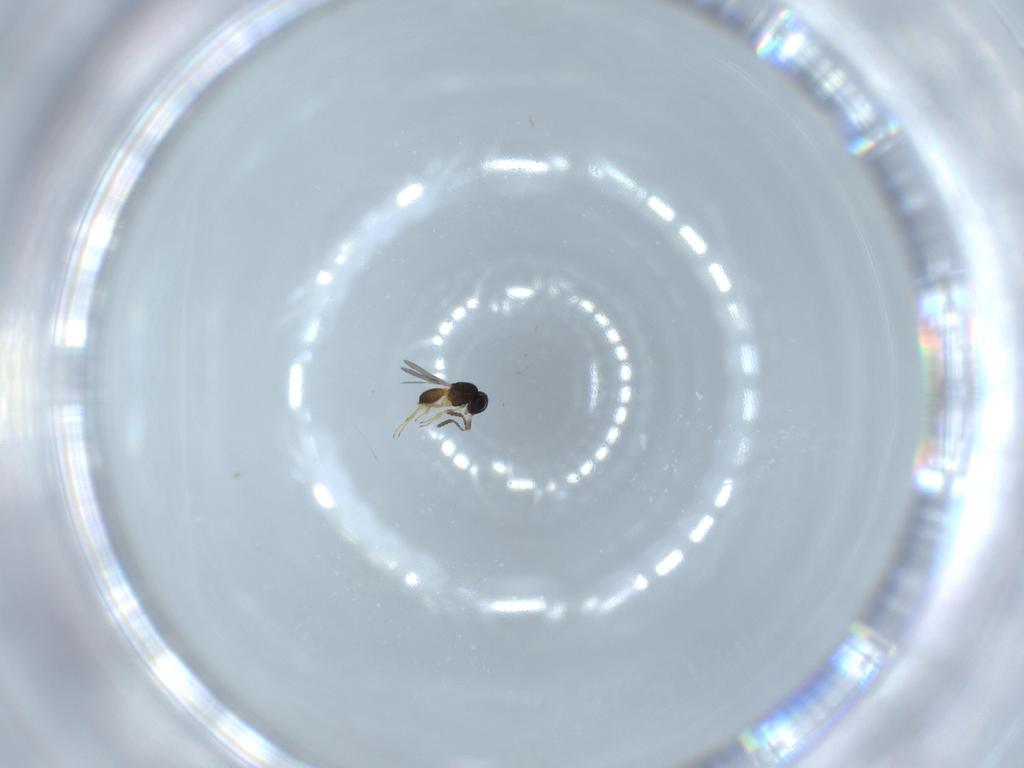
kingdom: Animalia
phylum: Arthropoda
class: Insecta
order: Hymenoptera
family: Scelionidae
